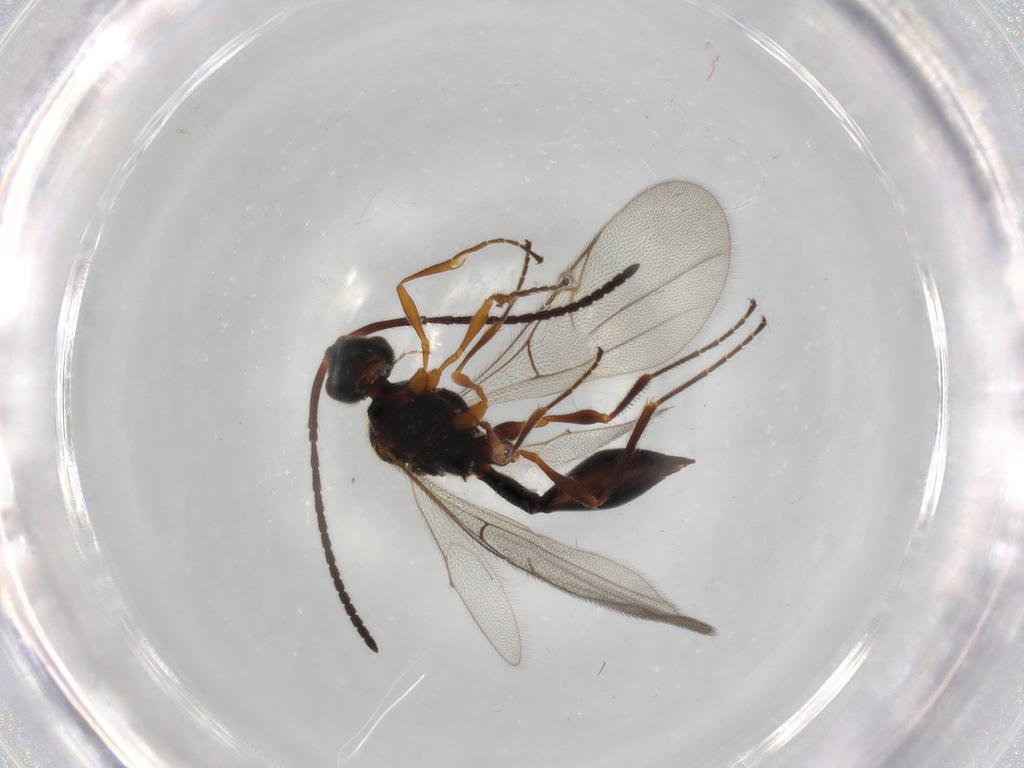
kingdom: Animalia
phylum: Arthropoda
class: Insecta
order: Hymenoptera
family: Diapriidae
